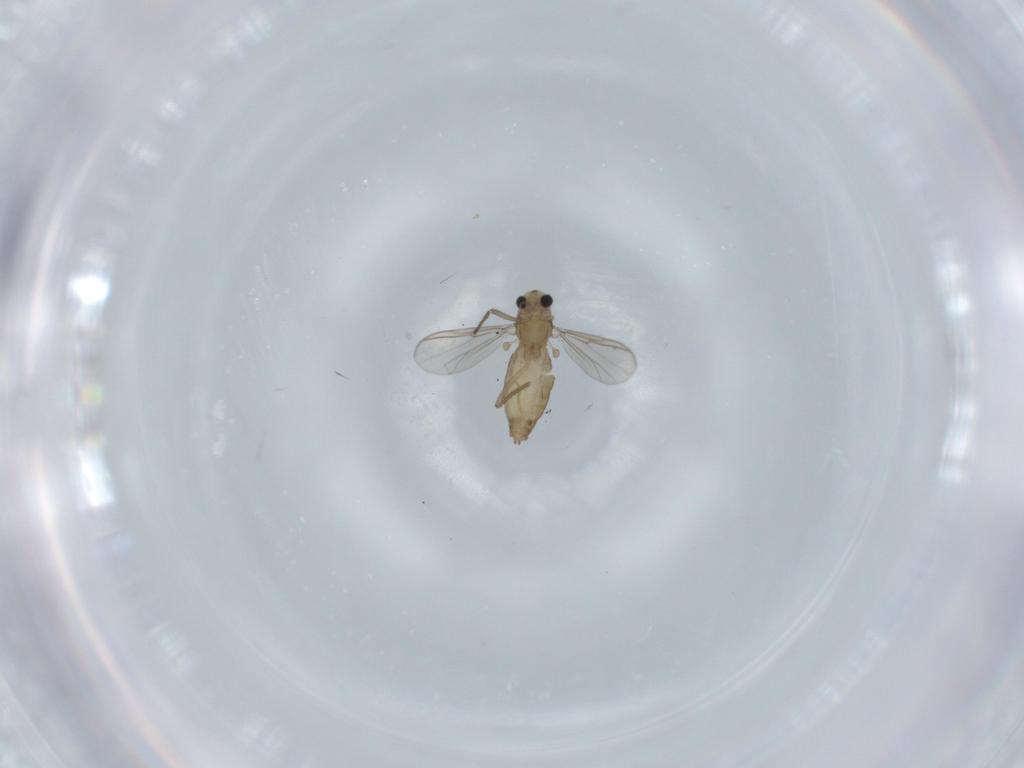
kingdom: Animalia
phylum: Arthropoda
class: Insecta
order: Diptera
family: Chironomidae
